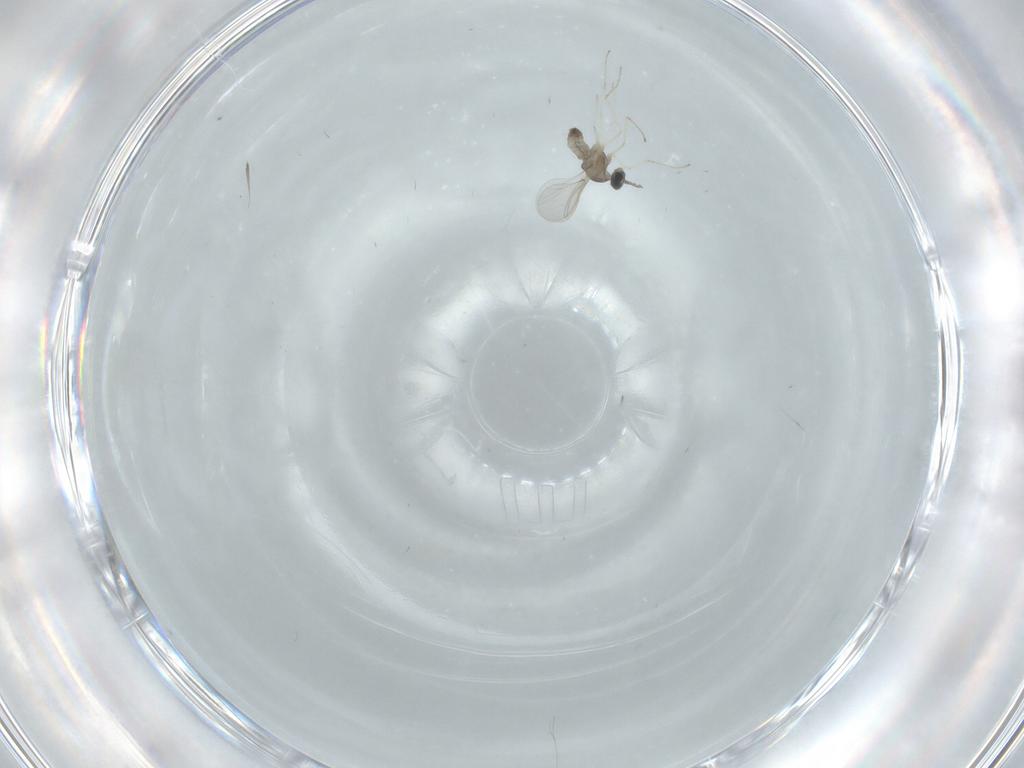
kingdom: Animalia
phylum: Arthropoda
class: Insecta
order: Diptera
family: Cecidomyiidae
